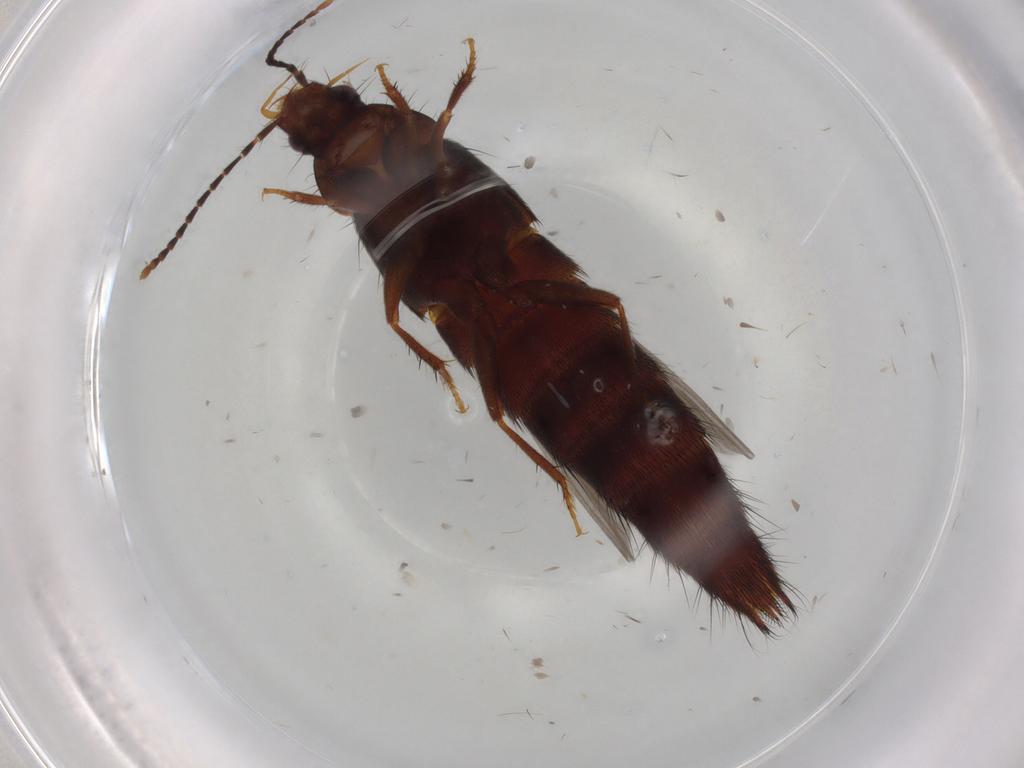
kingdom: Animalia
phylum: Arthropoda
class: Insecta
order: Coleoptera
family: Staphylinidae
